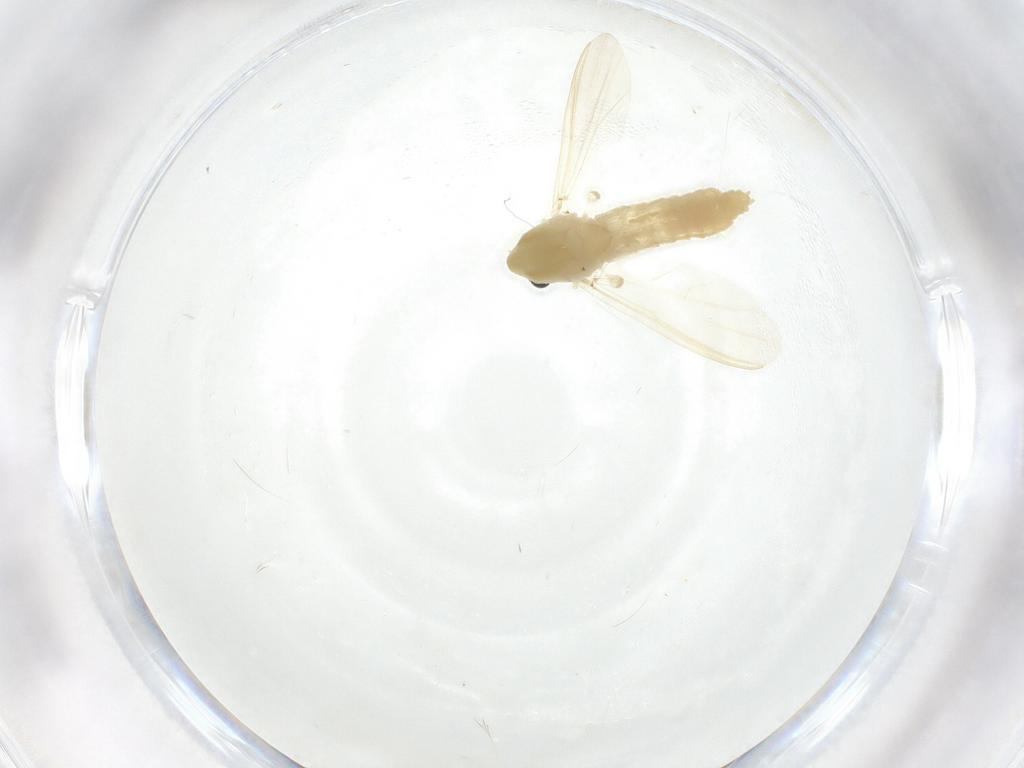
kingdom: Animalia
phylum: Arthropoda
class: Insecta
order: Diptera
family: Chironomidae
